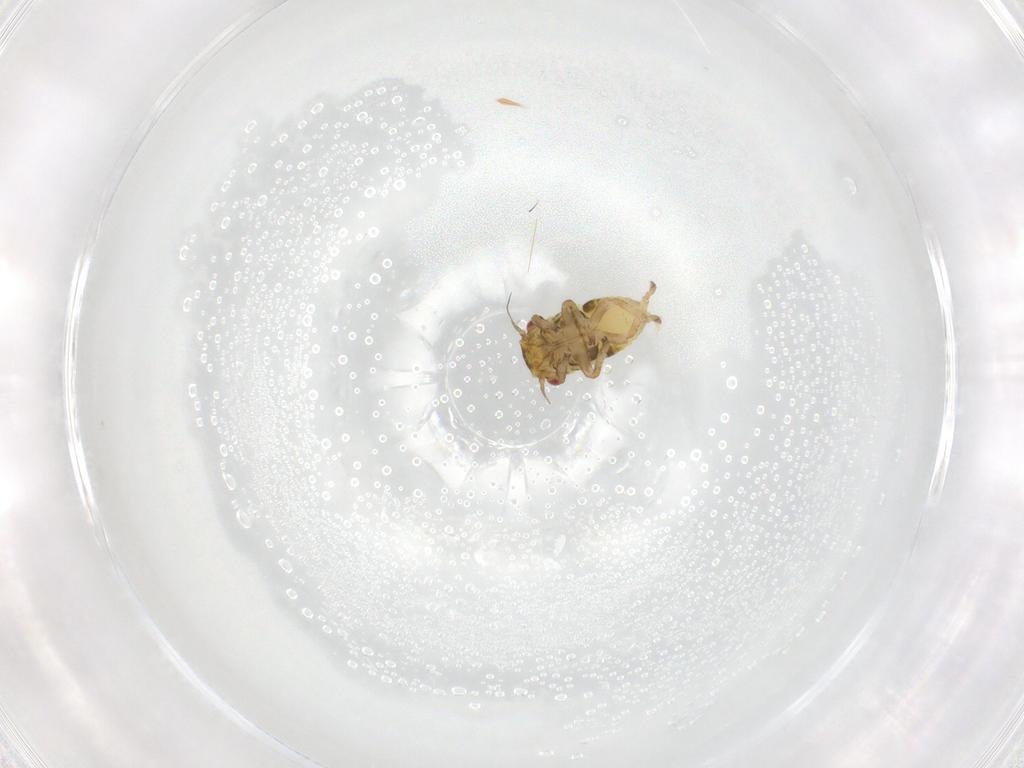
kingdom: Animalia
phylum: Arthropoda
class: Insecta
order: Hemiptera
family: Cicadellidae
